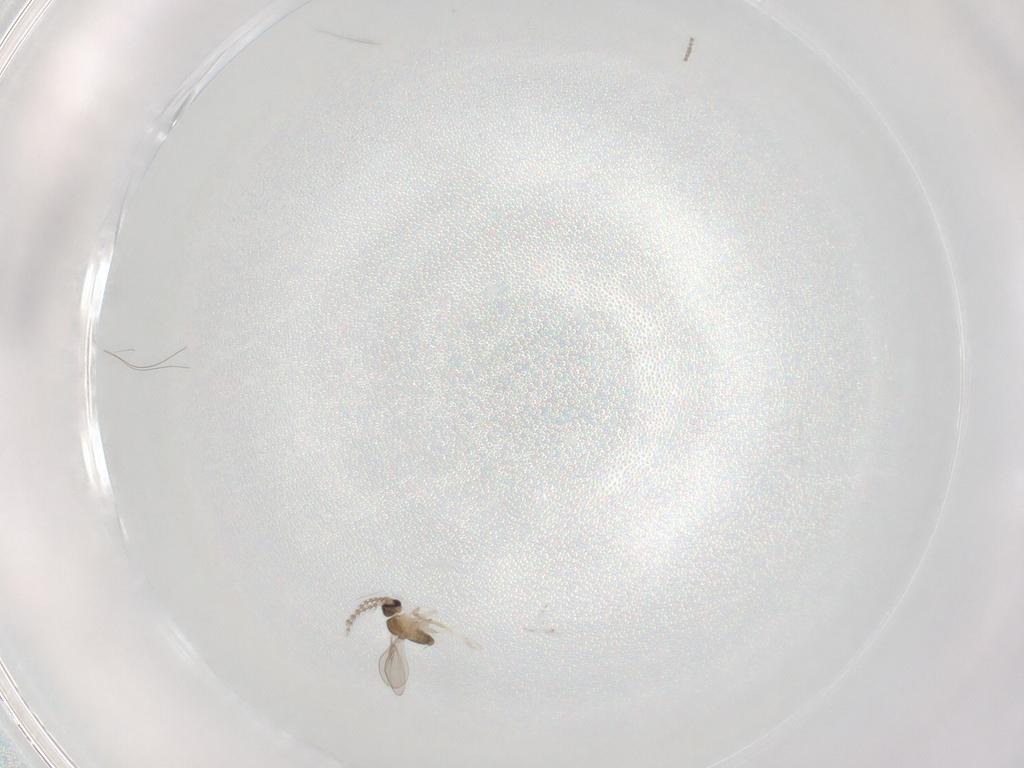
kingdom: Animalia
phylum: Arthropoda
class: Insecta
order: Diptera
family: Cecidomyiidae
